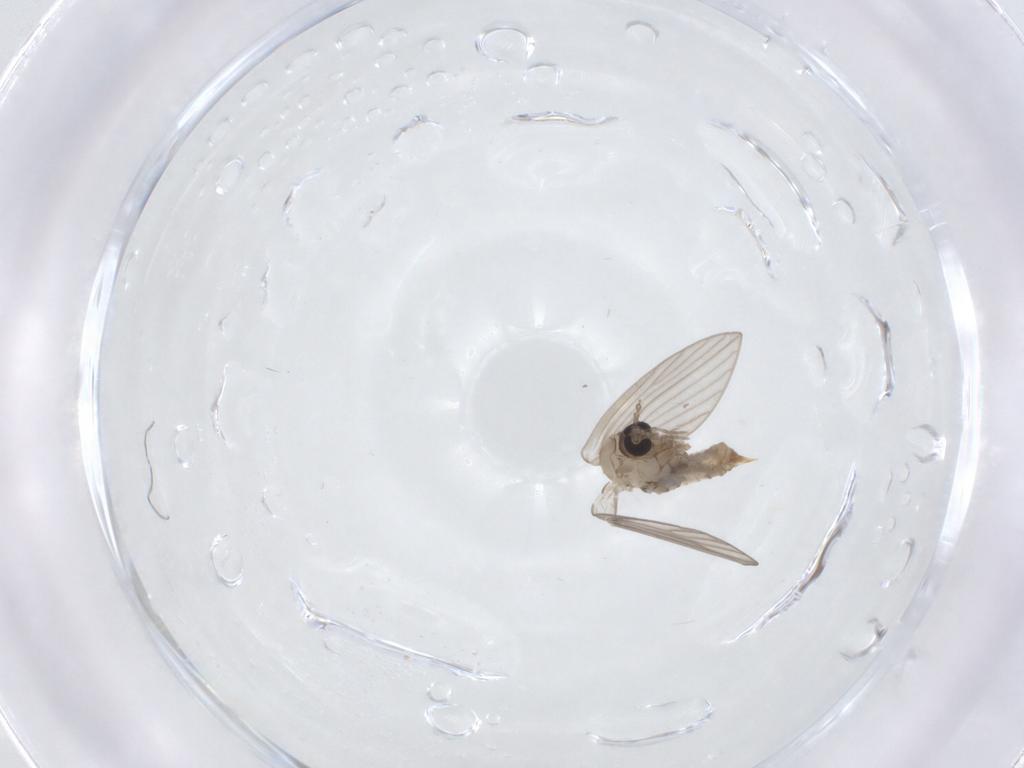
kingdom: Animalia
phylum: Arthropoda
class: Insecta
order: Diptera
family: Psychodidae
